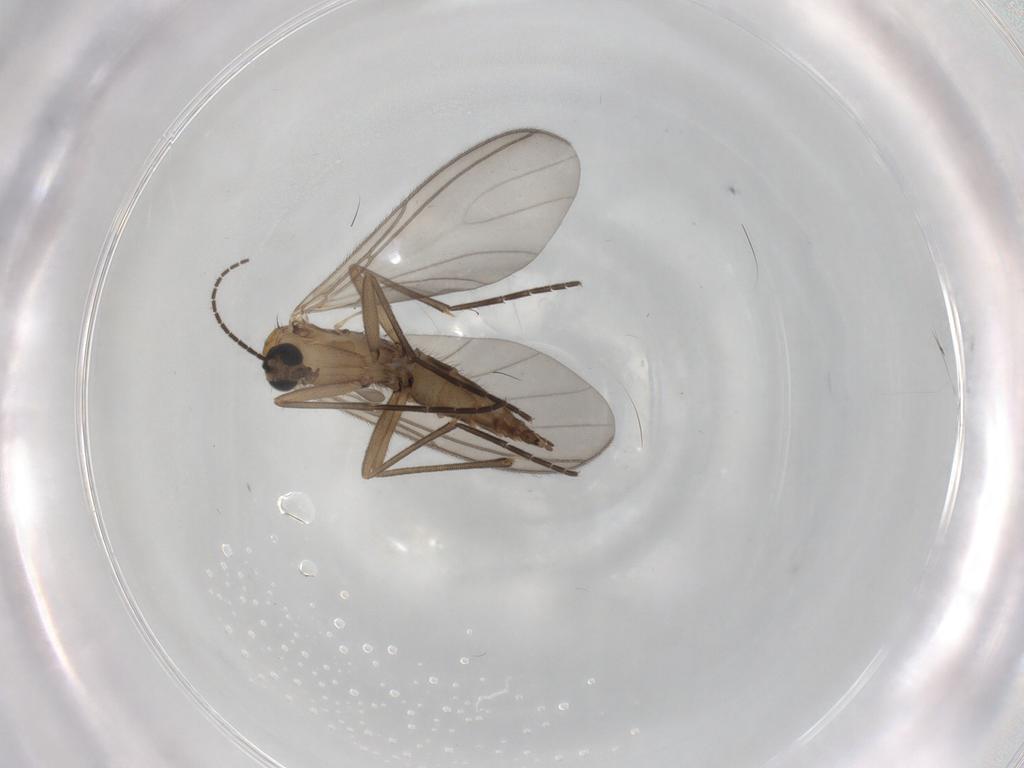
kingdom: Animalia
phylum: Arthropoda
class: Insecta
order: Diptera
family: Sciaridae
